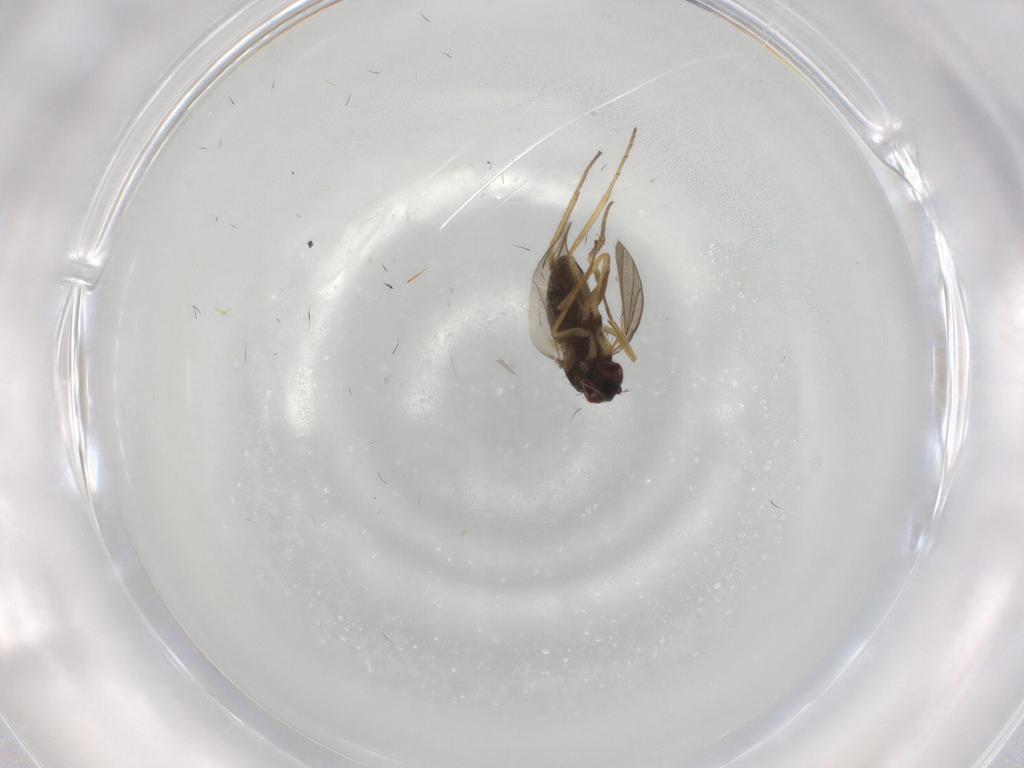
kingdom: Animalia
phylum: Arthropoda
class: Insecta
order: Diptera
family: Dolichopodidae
